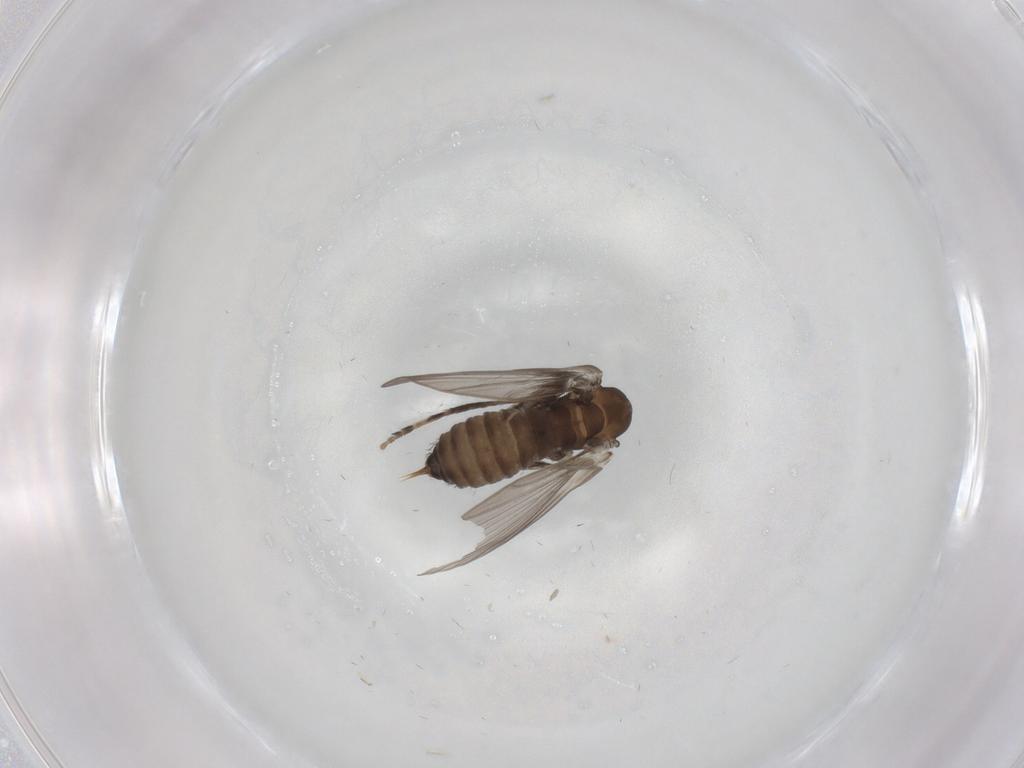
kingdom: Animalia
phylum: Arthropoda
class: Insecta
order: Diptera
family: Psychodidae
